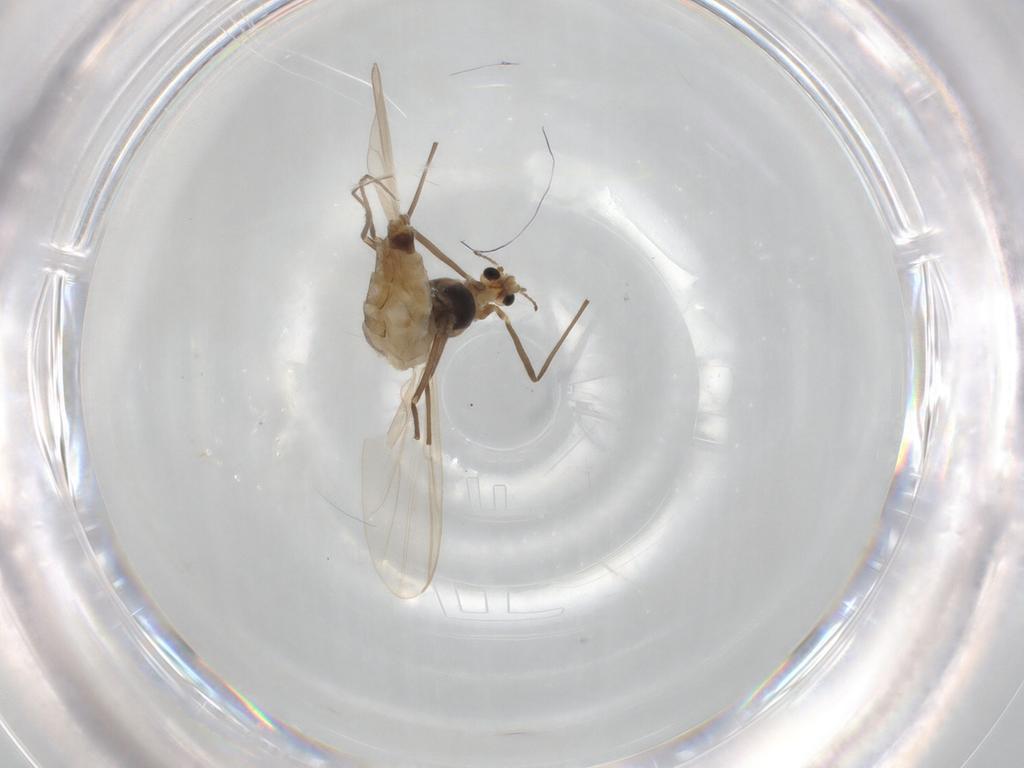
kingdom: Animalia
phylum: Arthropoda
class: Insecta
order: Diptera
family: Chironomidae
